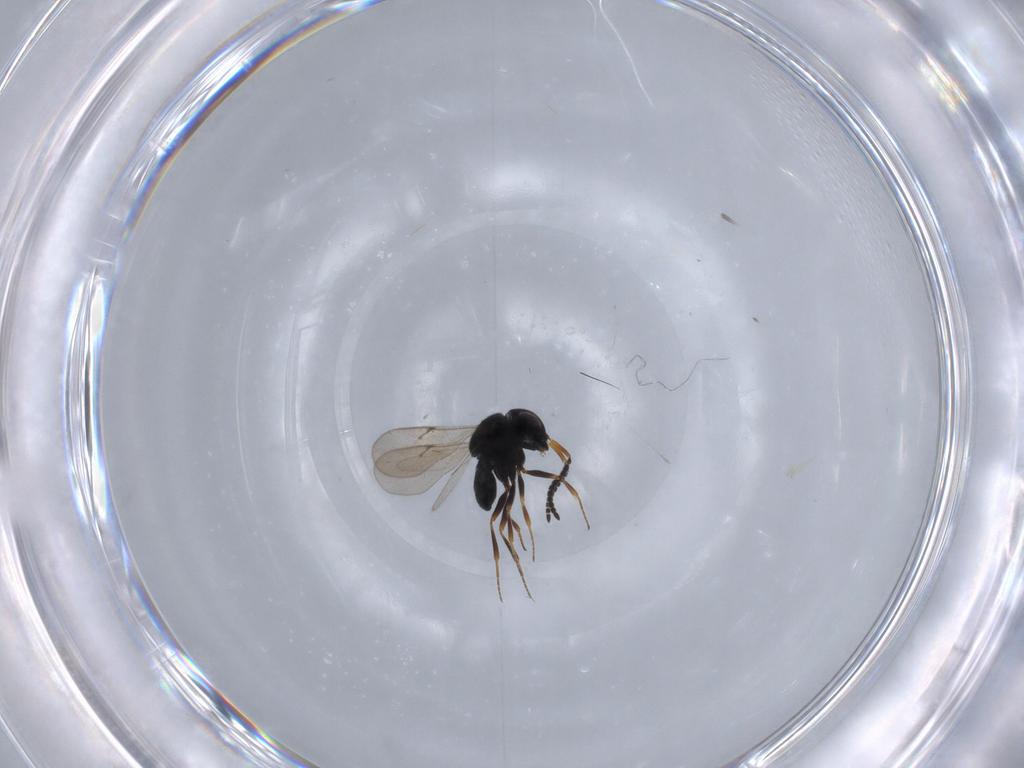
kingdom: Animalia
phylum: Arthropoda
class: Insecta
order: Hymenoptera
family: Scelionidae
